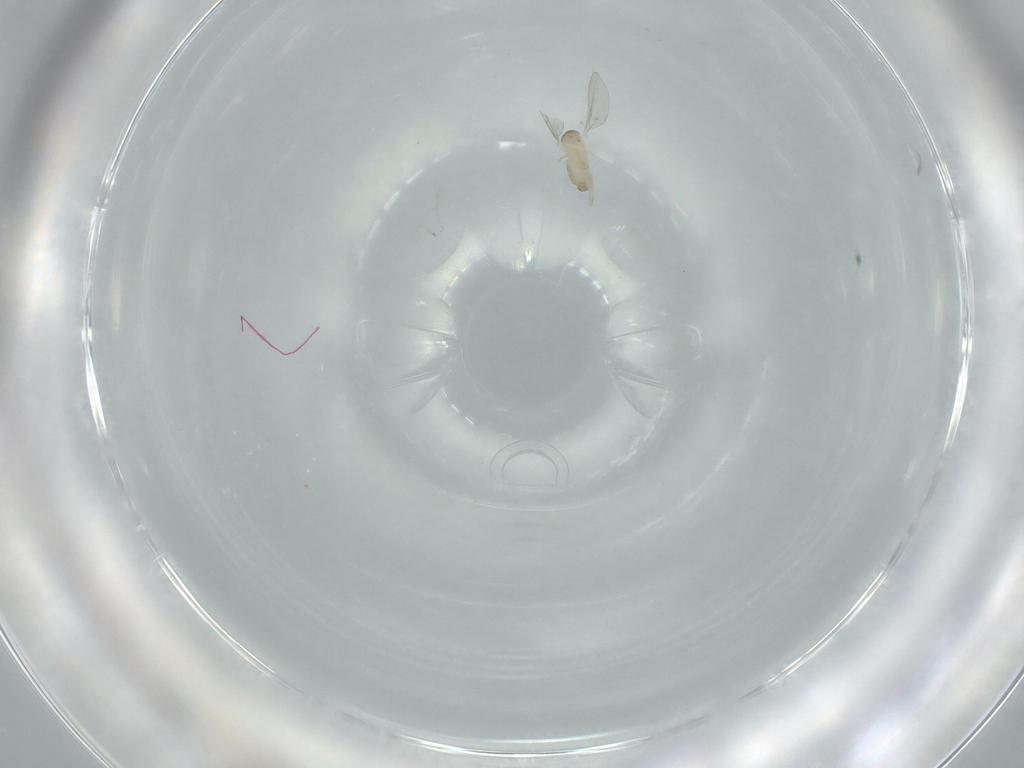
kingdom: Animalia
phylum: Arthropoda
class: Insecta
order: Diptera
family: Cecidomyiidae
